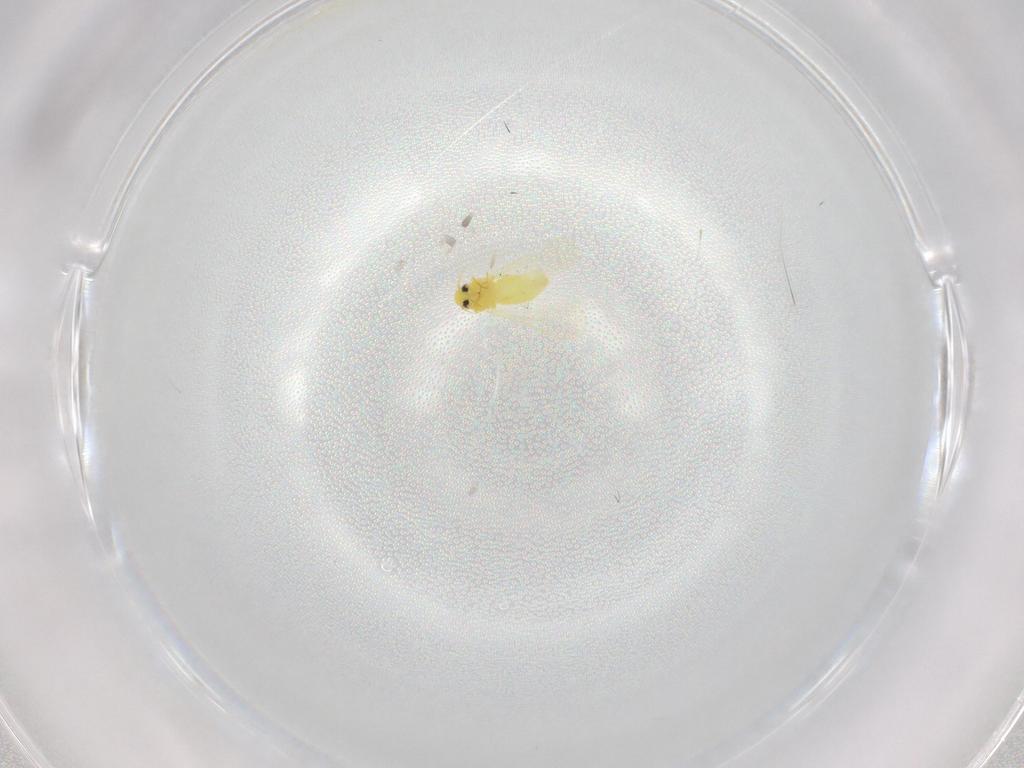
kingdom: Animalia
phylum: Arthropoda
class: Insecta
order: Hemiptera
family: Aleyrodidae
